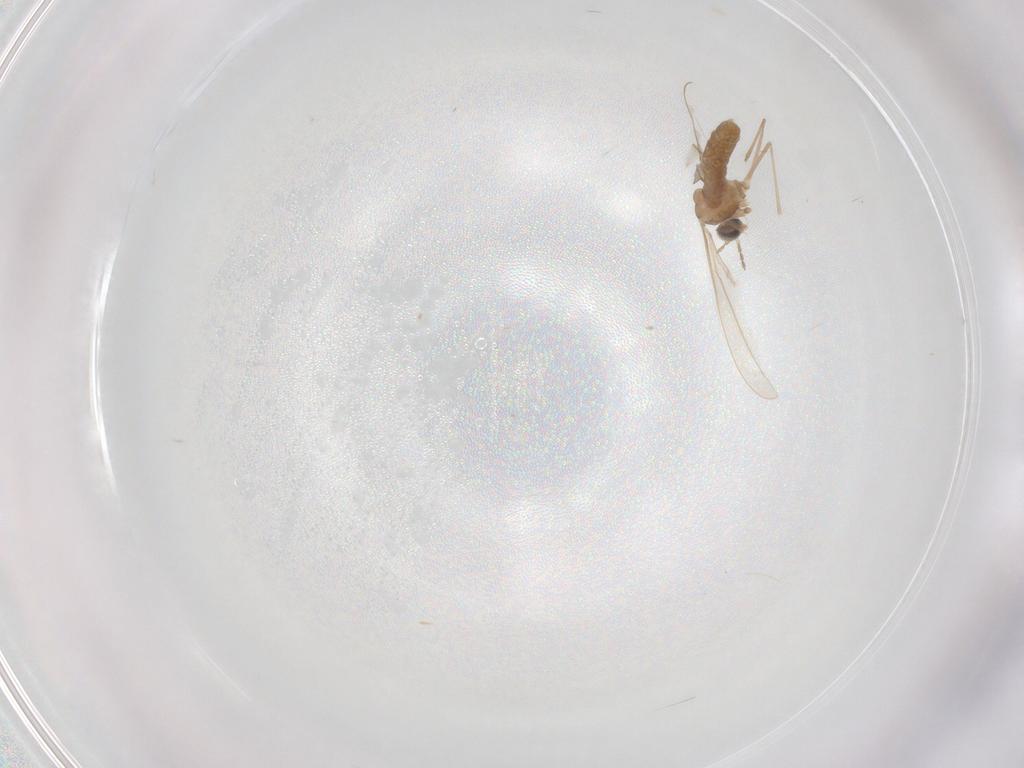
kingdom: Animalia
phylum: Arthropoda
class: Insecta
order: Diptera
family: Cecidomyiidae
